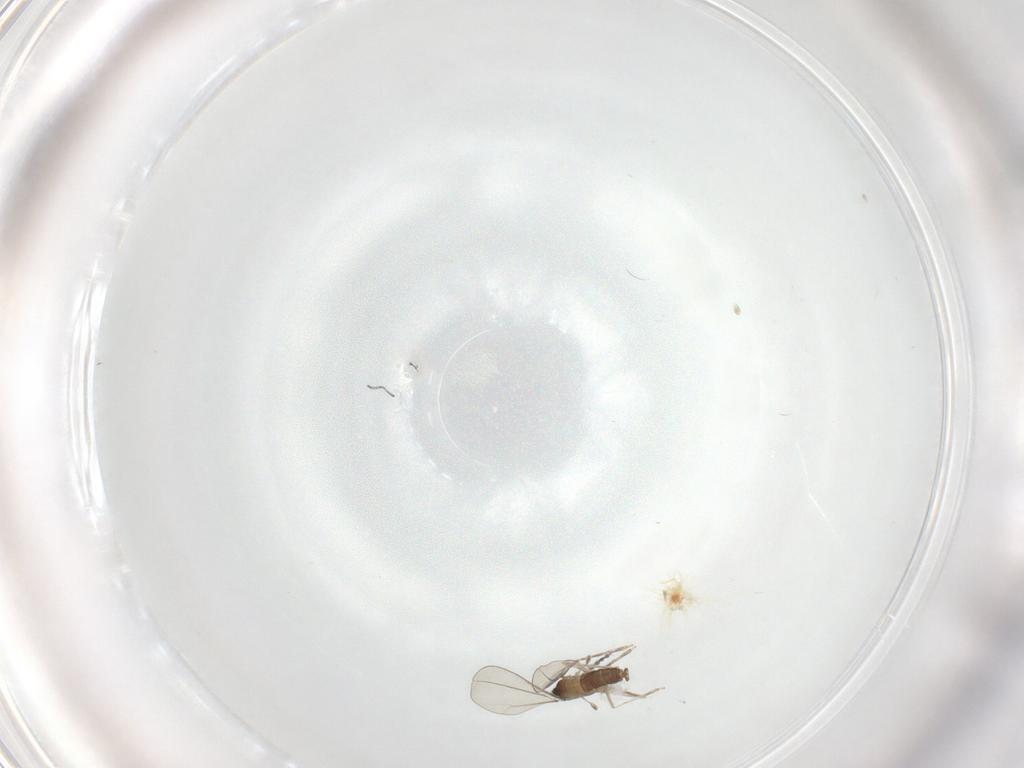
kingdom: Animalia
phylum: Arthropoda
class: Insecta
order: Diptera
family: Cecidomyiidae
